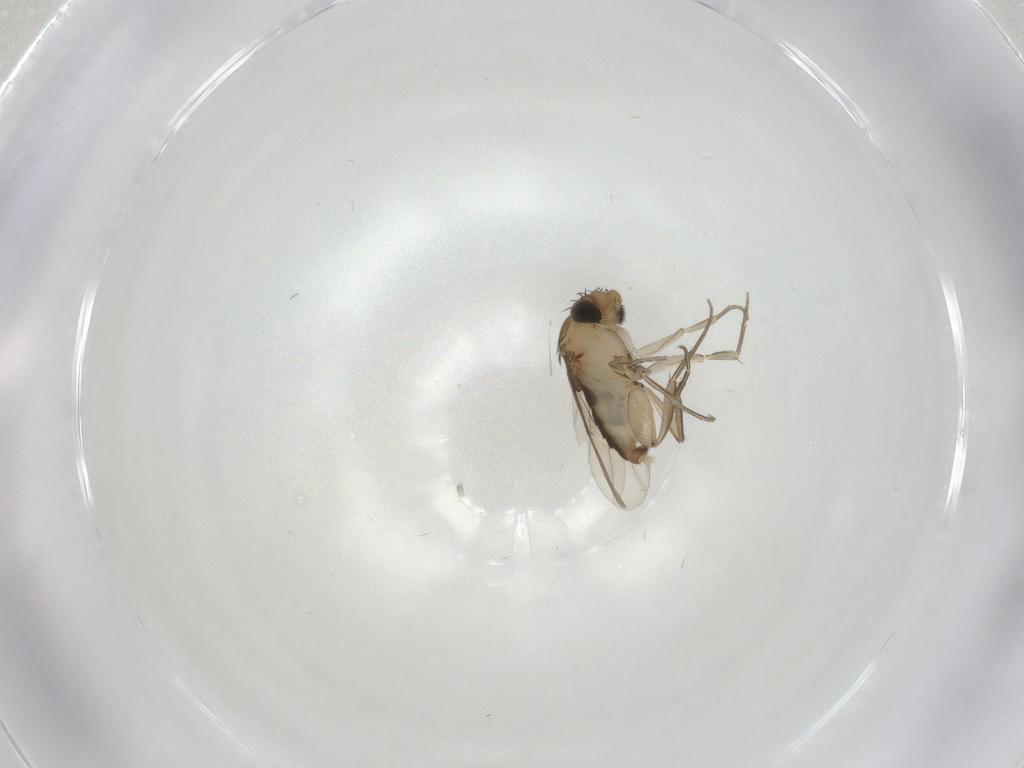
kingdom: Animalia
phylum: Arthropoda
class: Insecta
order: Diptera
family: Phoridae
